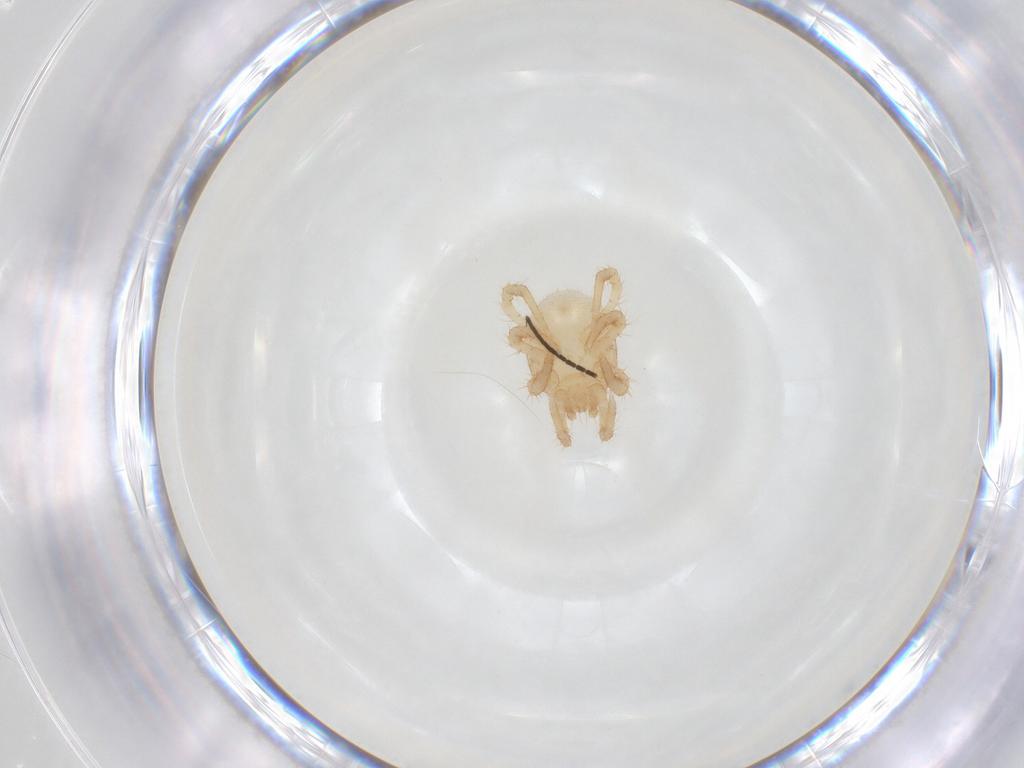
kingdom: Animalia
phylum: Arthropoda
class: Insecta
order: Diptera
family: Sciaridae
